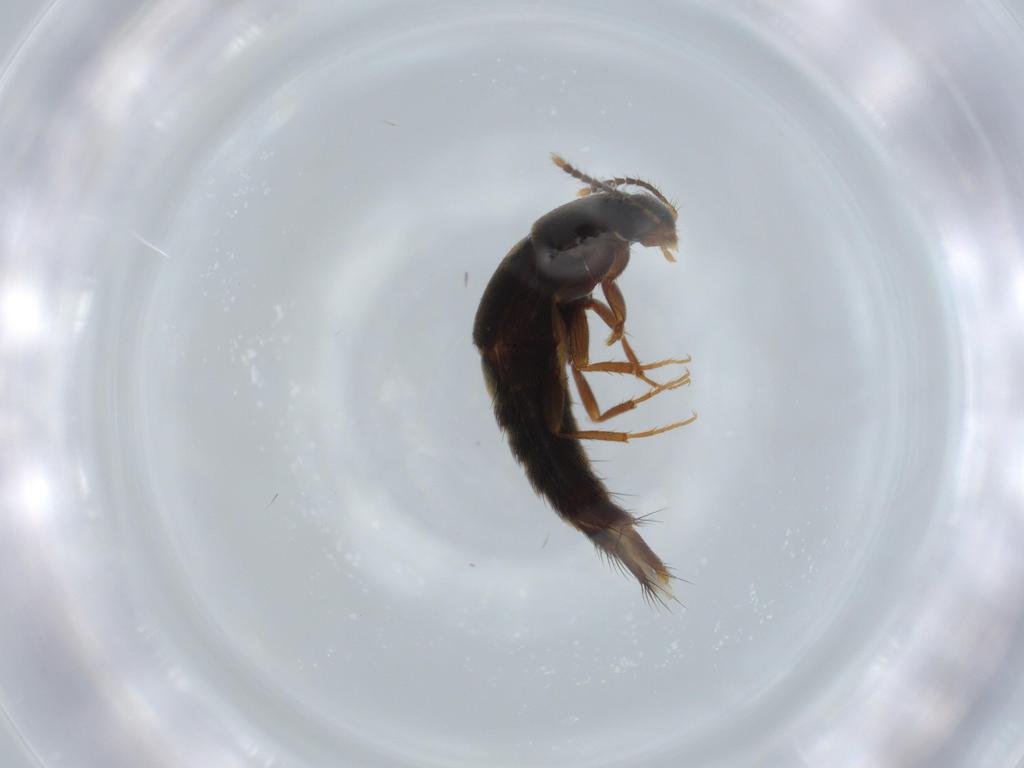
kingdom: Animalia
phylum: Arthropoda
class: Insecta
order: Coleoptera
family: Staphylinidae
